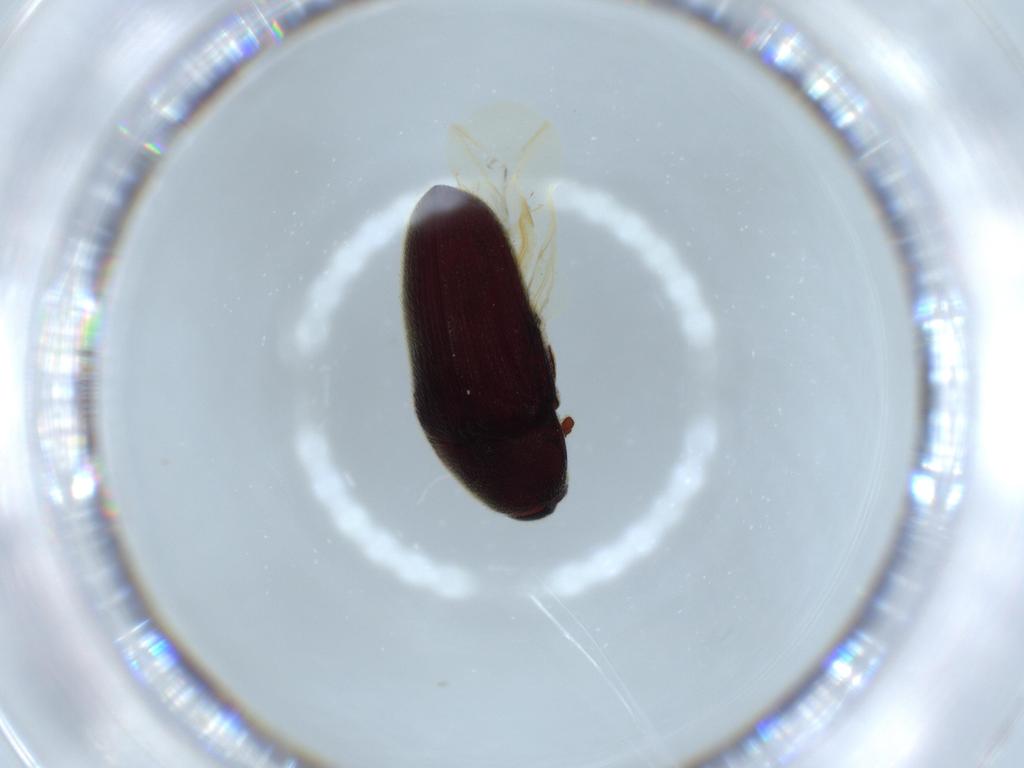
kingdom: Animalia
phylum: Arthropoda
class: Insecta
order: Coleoptera
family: Throscidae
